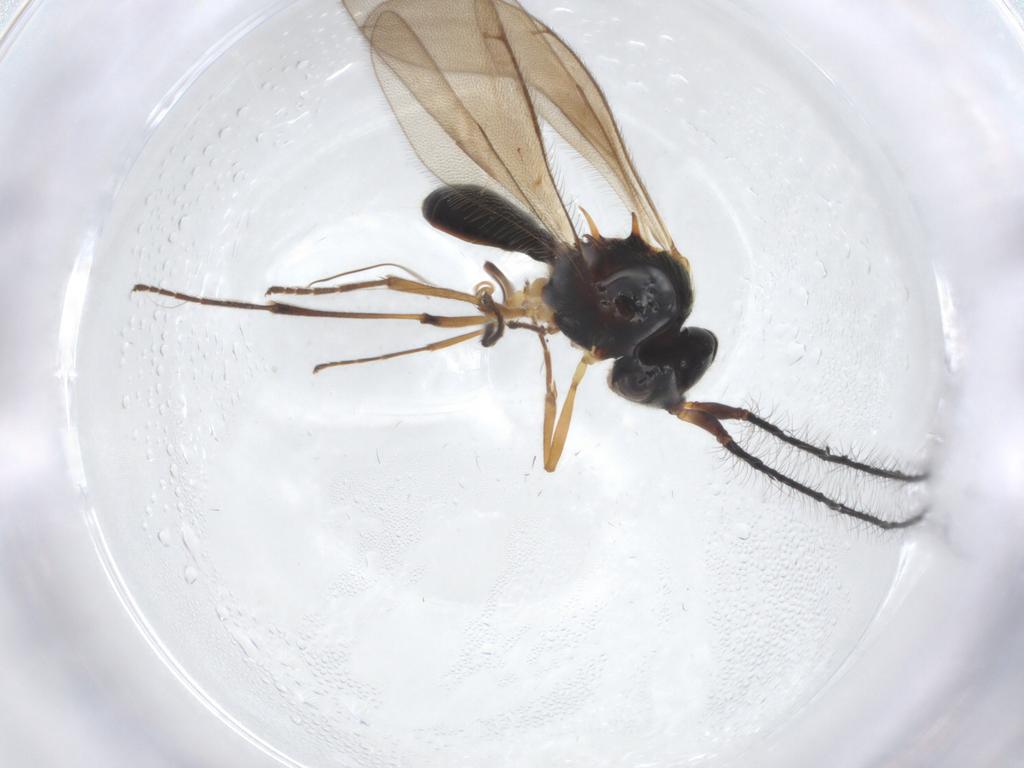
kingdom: Animalia
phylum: Arthropoda
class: Insecta
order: Hymenoptera
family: Scelionidae
